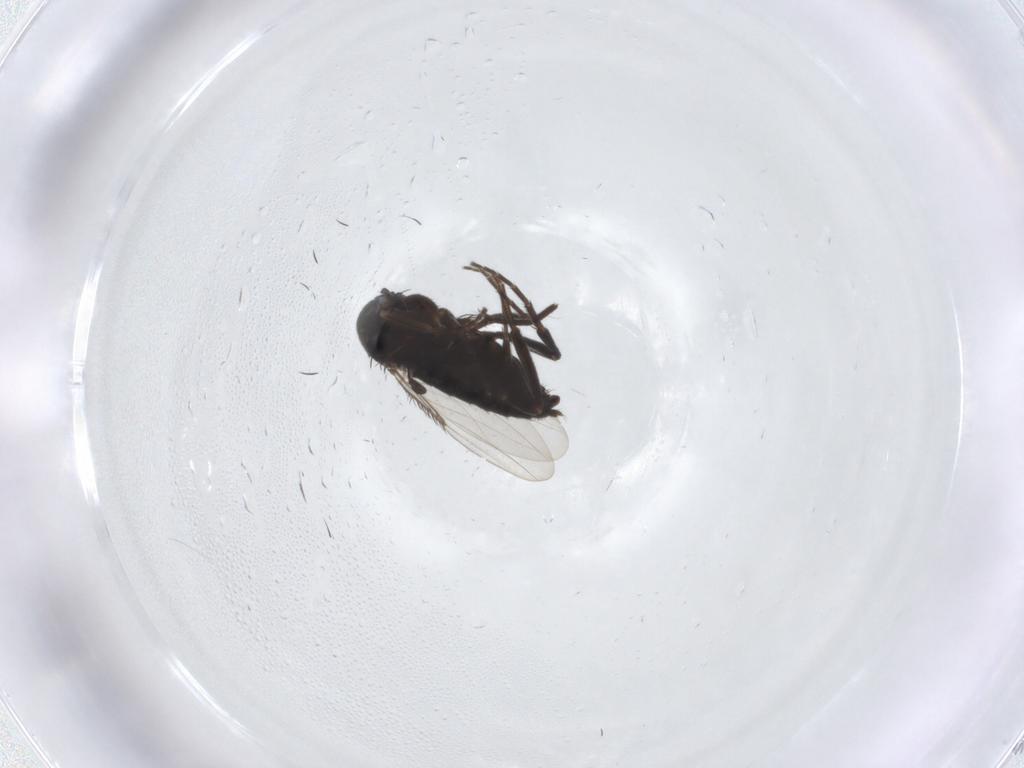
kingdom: Animalia
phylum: Arthropoda
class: Insecta
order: Diptera
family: Phoridae
